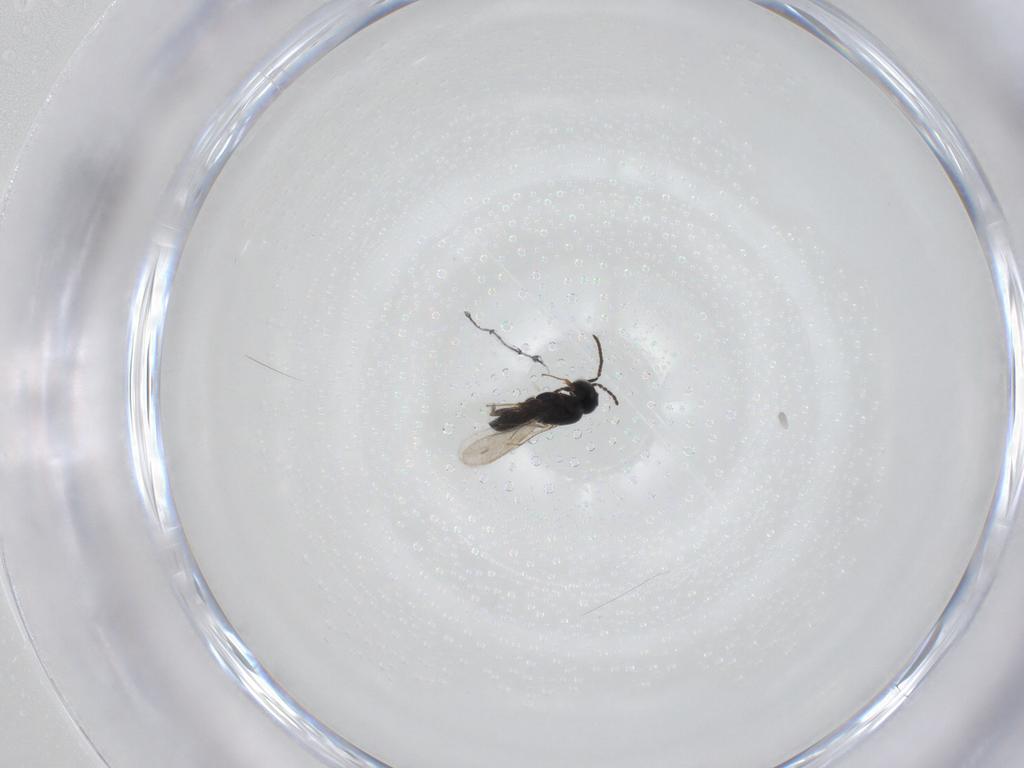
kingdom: Animalia
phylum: Arthropoda
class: Insecta
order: Hymenoptera
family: Scelionidae
